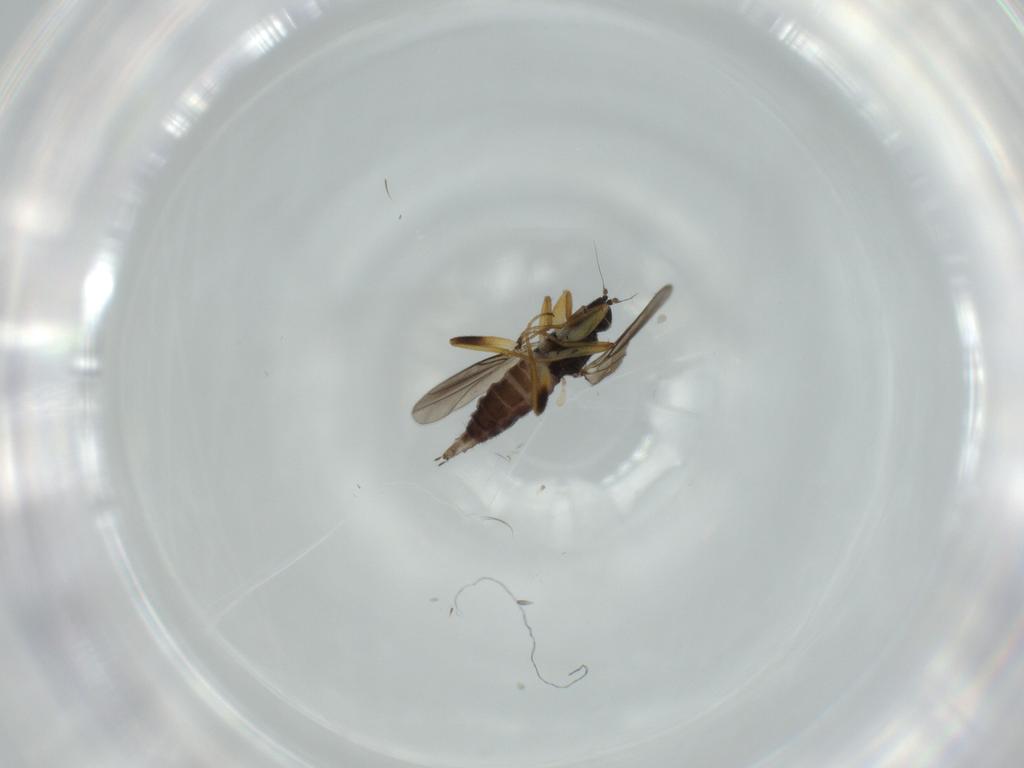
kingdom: Animalia
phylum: Arthropoda
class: Insecta
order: Diptera
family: Hybotidae
